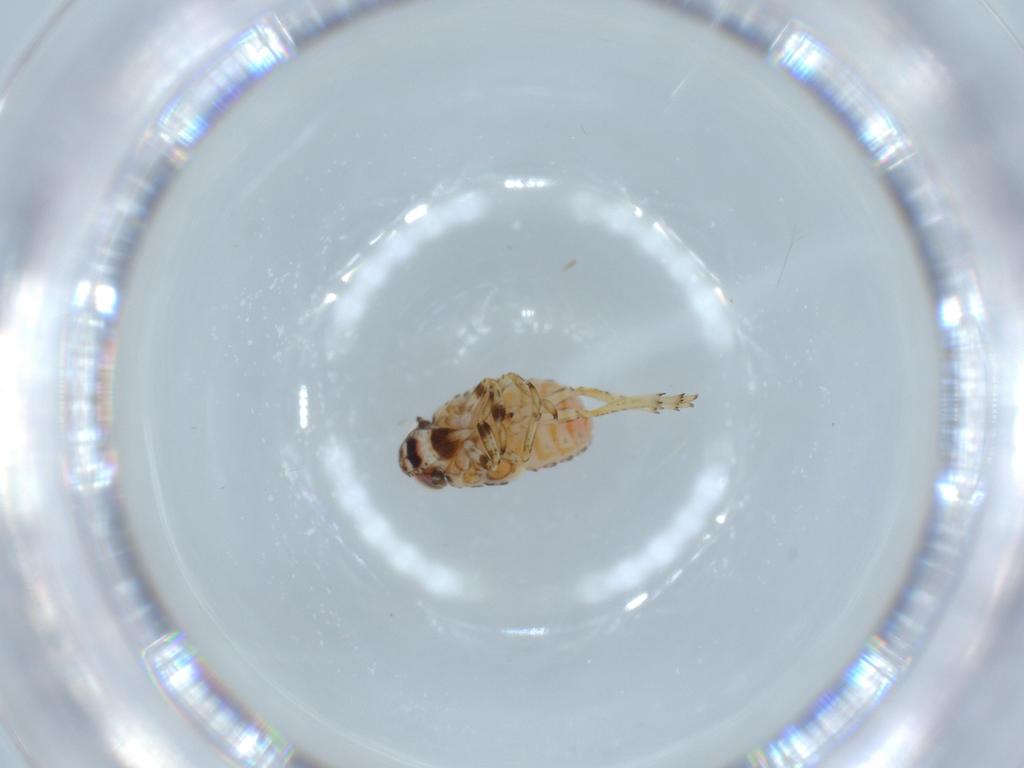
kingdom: Animalia
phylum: Arthropoda
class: Insecta
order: Hemiptera
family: Issidae
